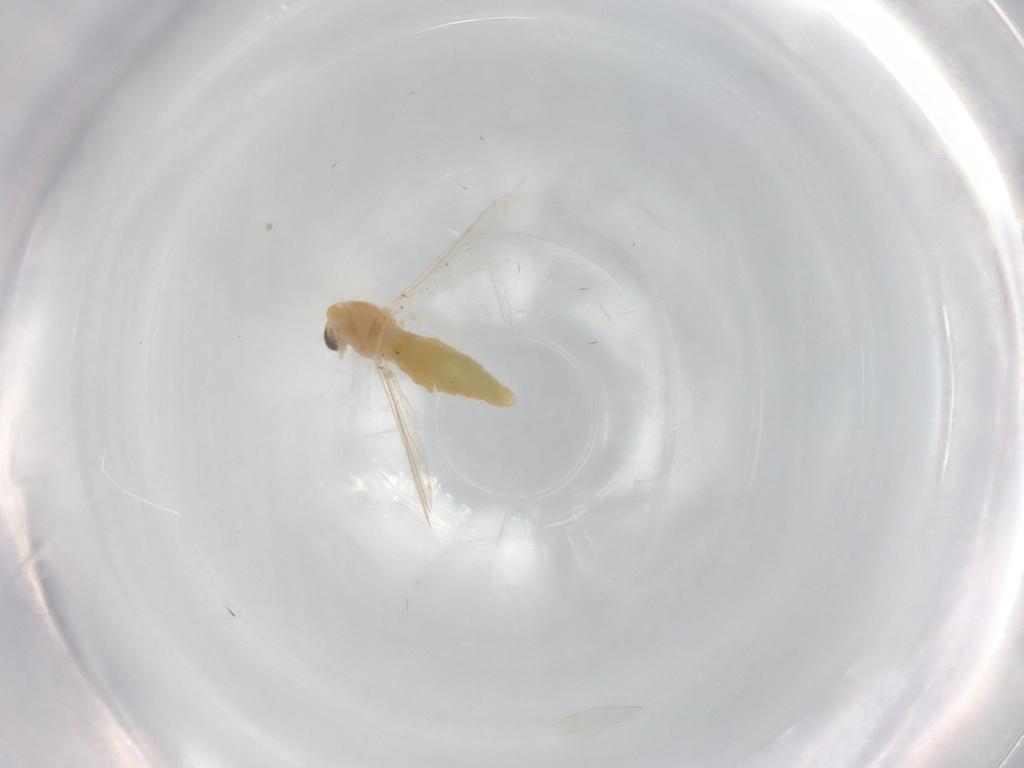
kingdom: Animalia
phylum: Arthropoda
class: Insecta
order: Diptera
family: Chironomidae
